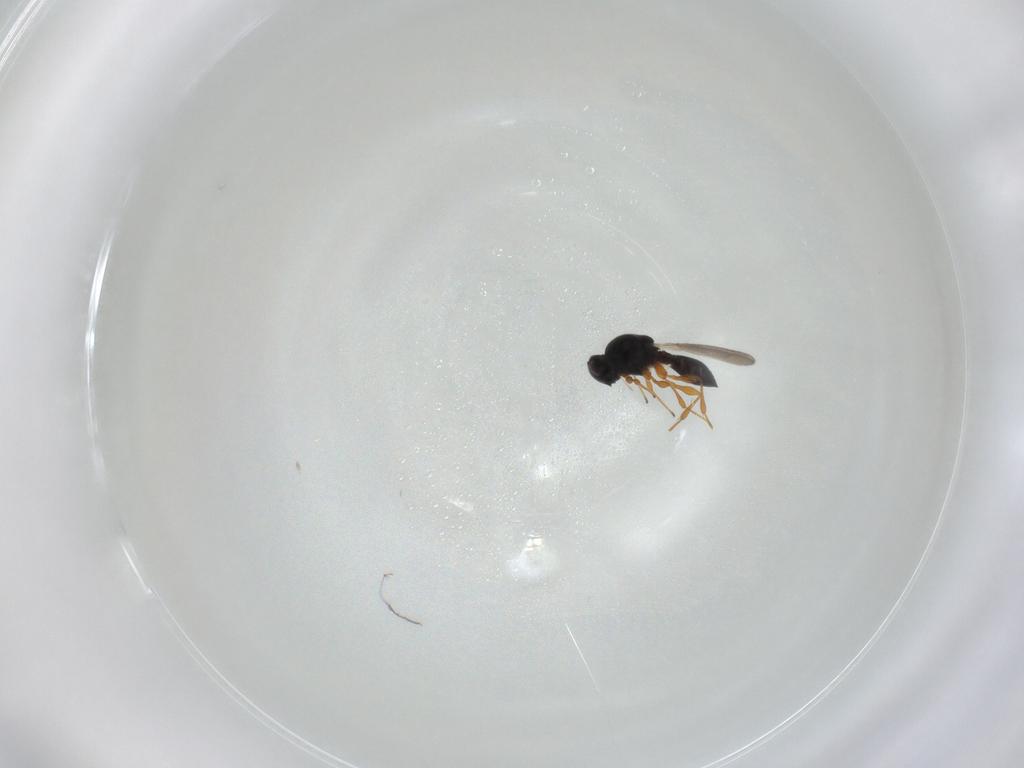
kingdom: Animalia
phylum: Arthropoda
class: Insecta
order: Hymenoptera
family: Platygastridae
